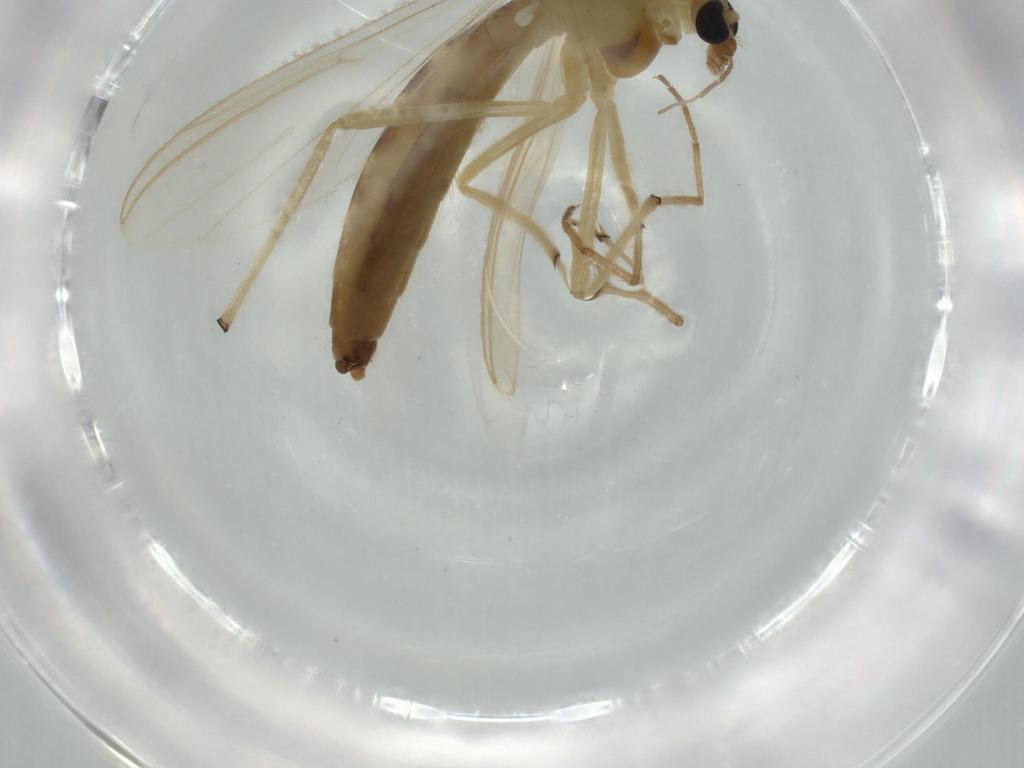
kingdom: Animalia
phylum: Arthropoda
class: Insecta
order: Diptera
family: Chironomidae
